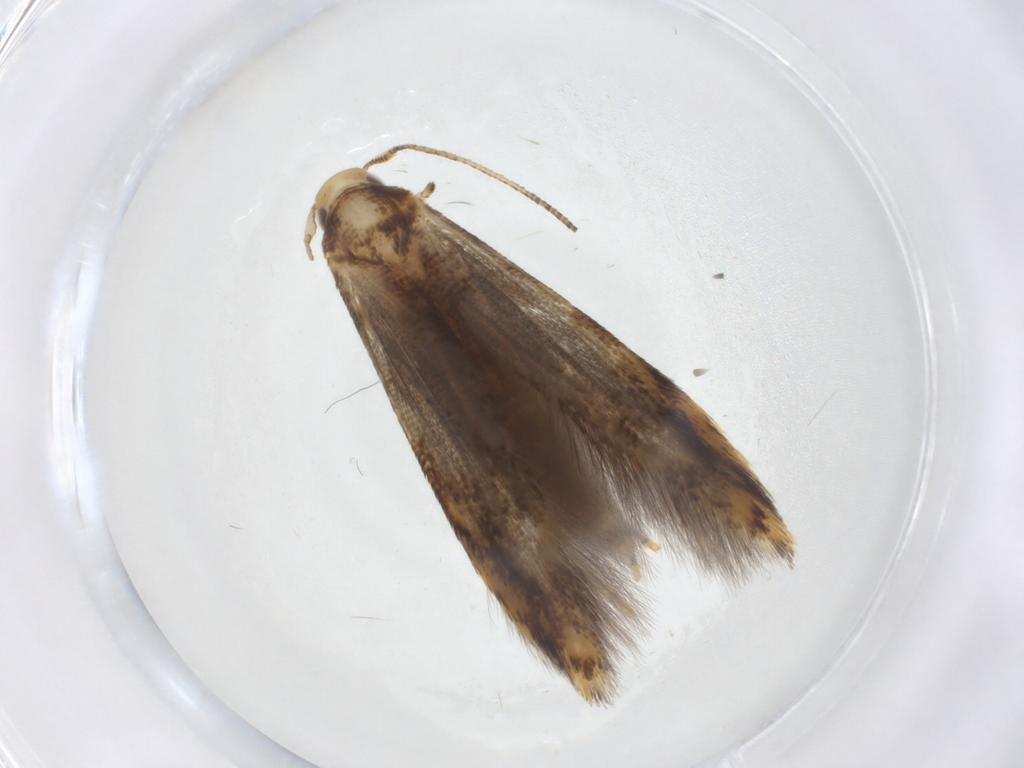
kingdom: Animalia
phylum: Arthropoda
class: Insecta
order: Lepidoptera
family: Erebidae
